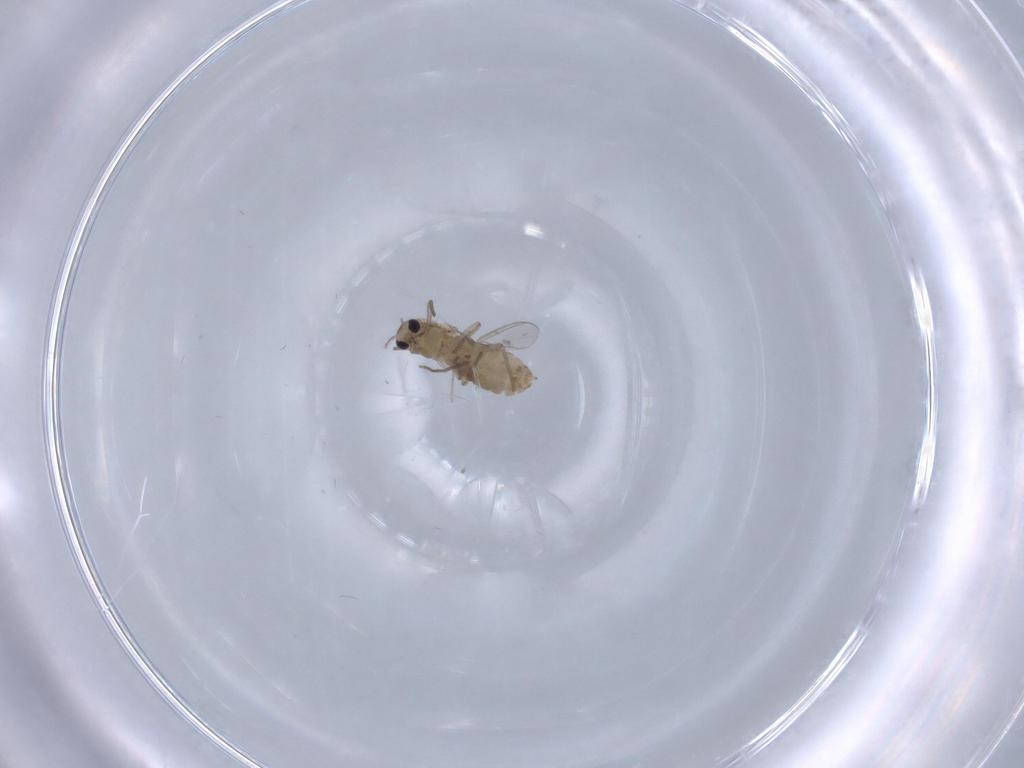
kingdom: Animalia
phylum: Arthropoda
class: Insecta
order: Diptera
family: Chironomidae
